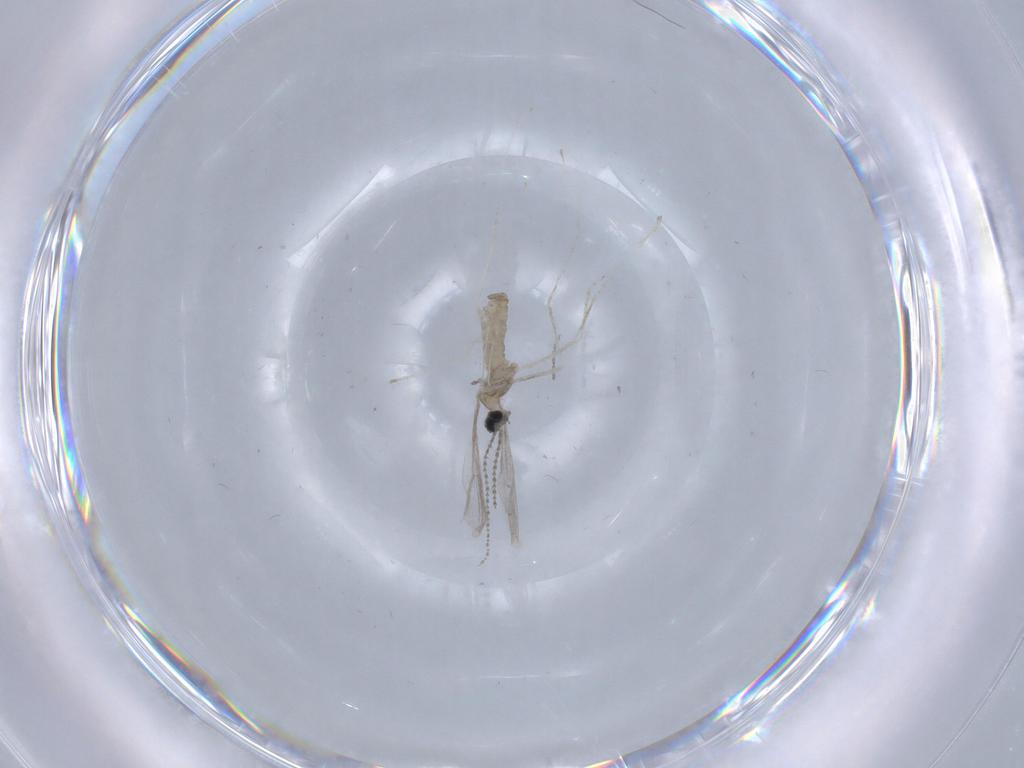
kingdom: Animalia
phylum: Arthropoda
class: Insecta
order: Diptera
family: Cecidomyiidae
